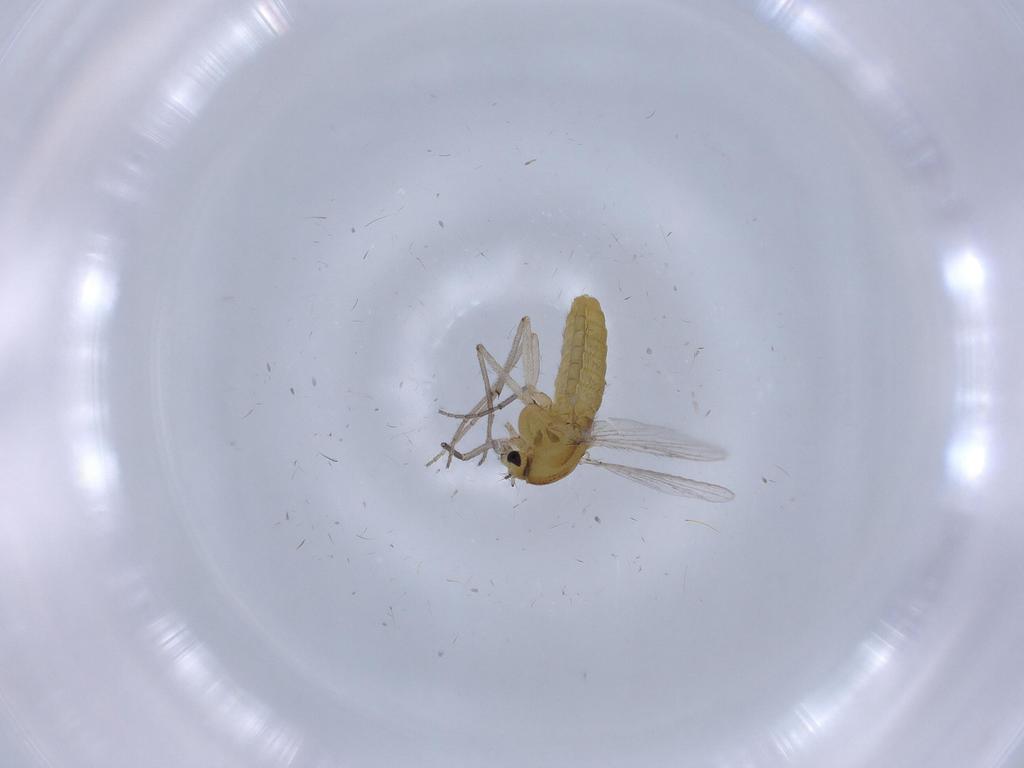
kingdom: Animalia
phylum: Arthropoda
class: Insecta
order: Diptera
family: Chironomidae
